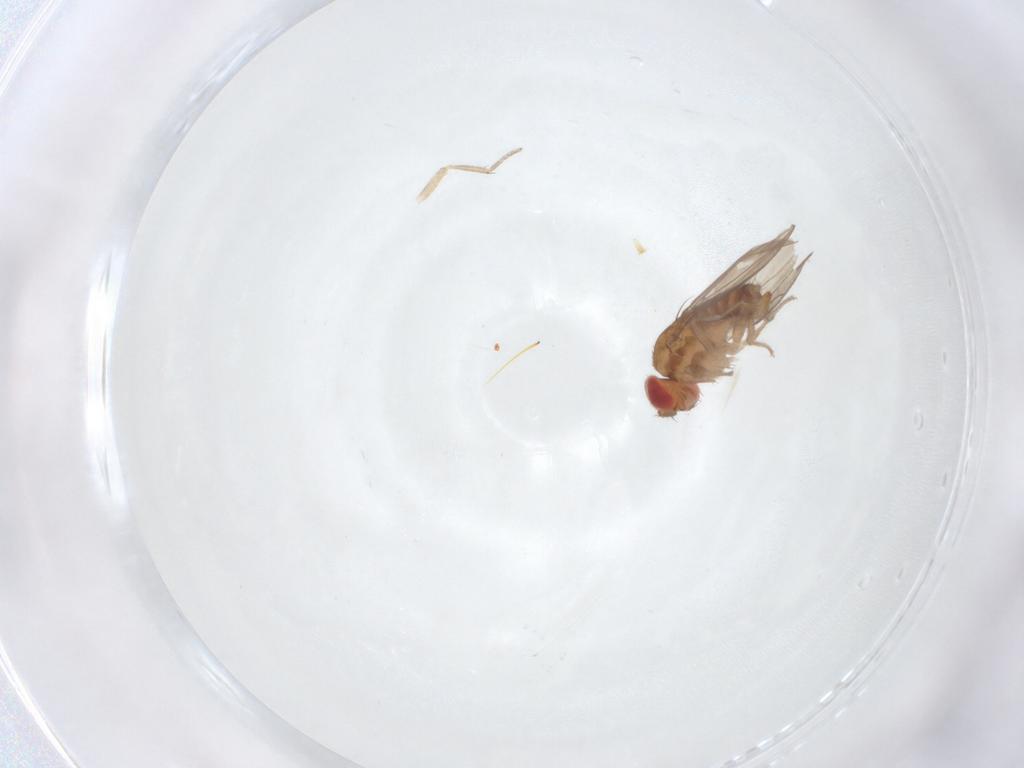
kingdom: Animalia
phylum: Arthropoda
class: Insecta
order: Diptera
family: Ephydridae
